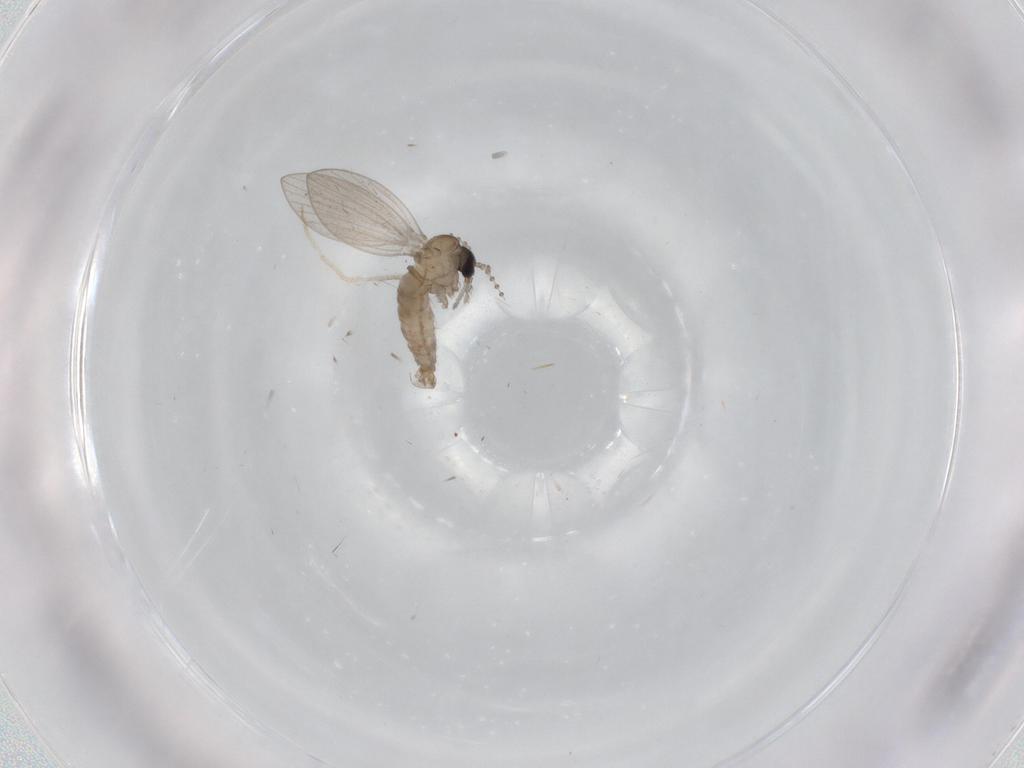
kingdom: Animalia
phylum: Arthropoda
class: Insecta
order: Diptera
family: Psychodidae
